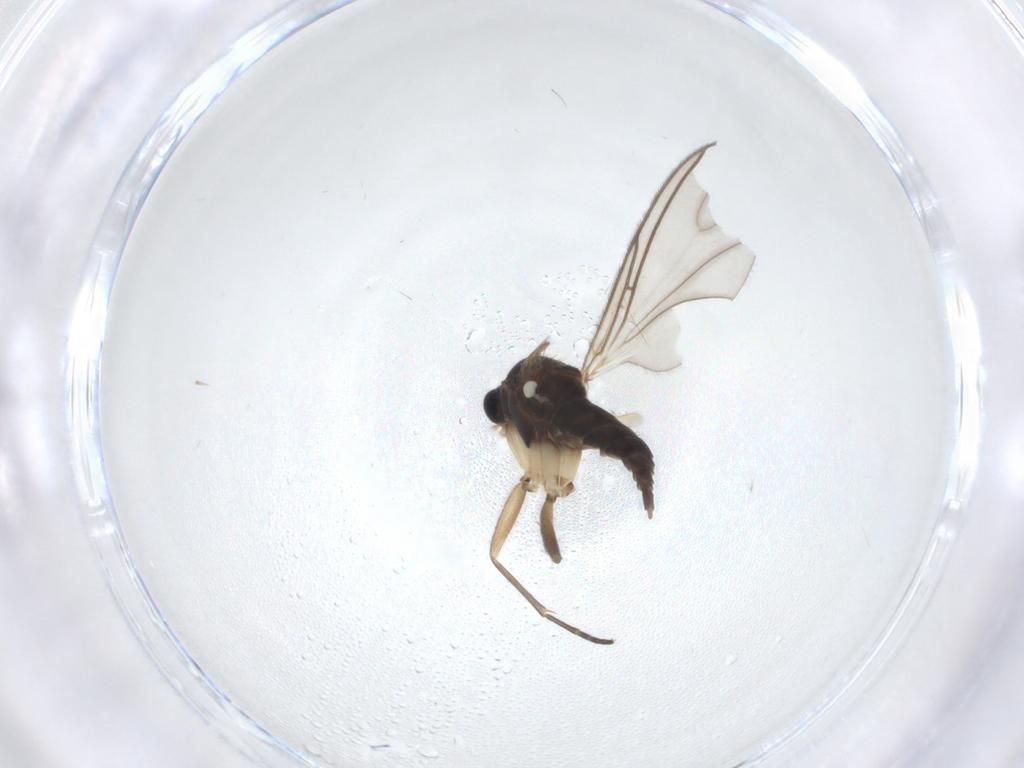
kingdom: Animalia
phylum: Arthropoda
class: Insecta
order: Diptera
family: Sciaridae
